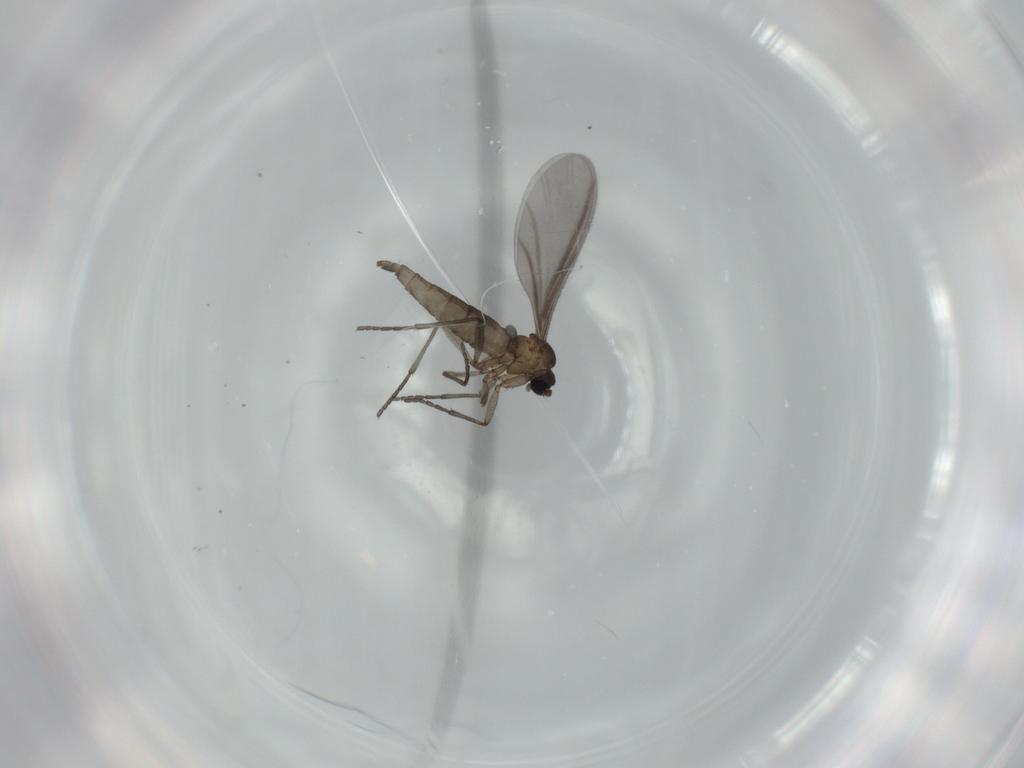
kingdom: Animalia
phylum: Arthropoda
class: Insecta
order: Diptera
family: Sciaridae
